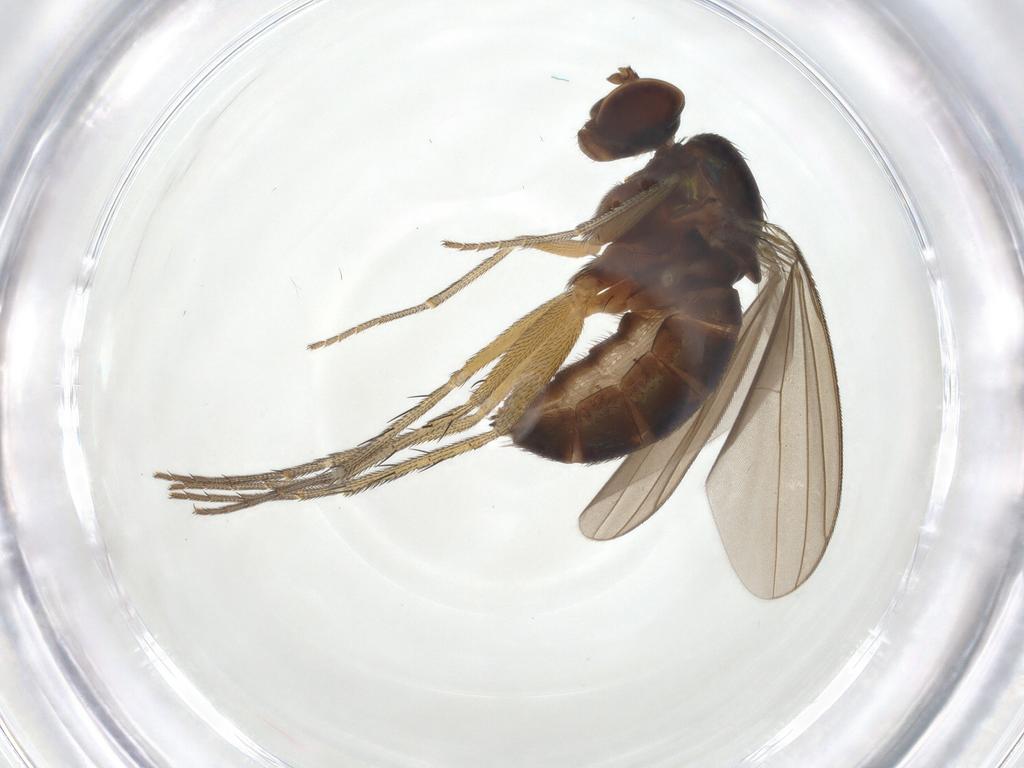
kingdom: Animalia
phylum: Arthropoda
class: Insecta
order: Diptera
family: Dolichopodidae
